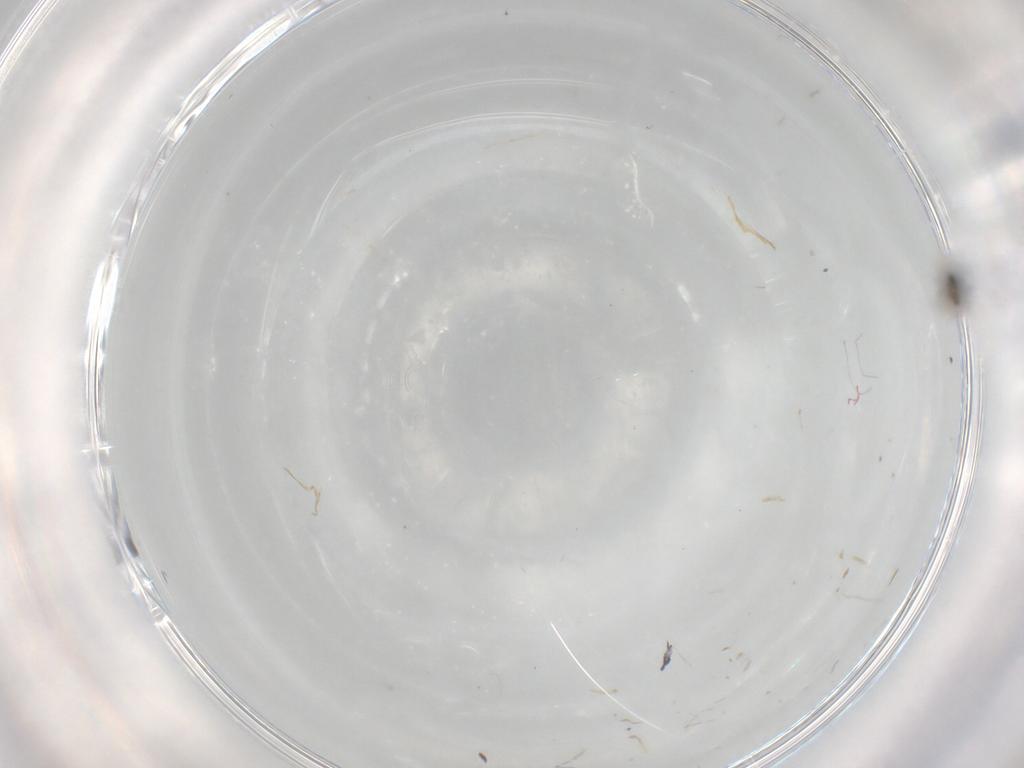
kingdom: Animalia
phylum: Arthropoda
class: Insecta
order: Diptera
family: Cecidomyiidae
